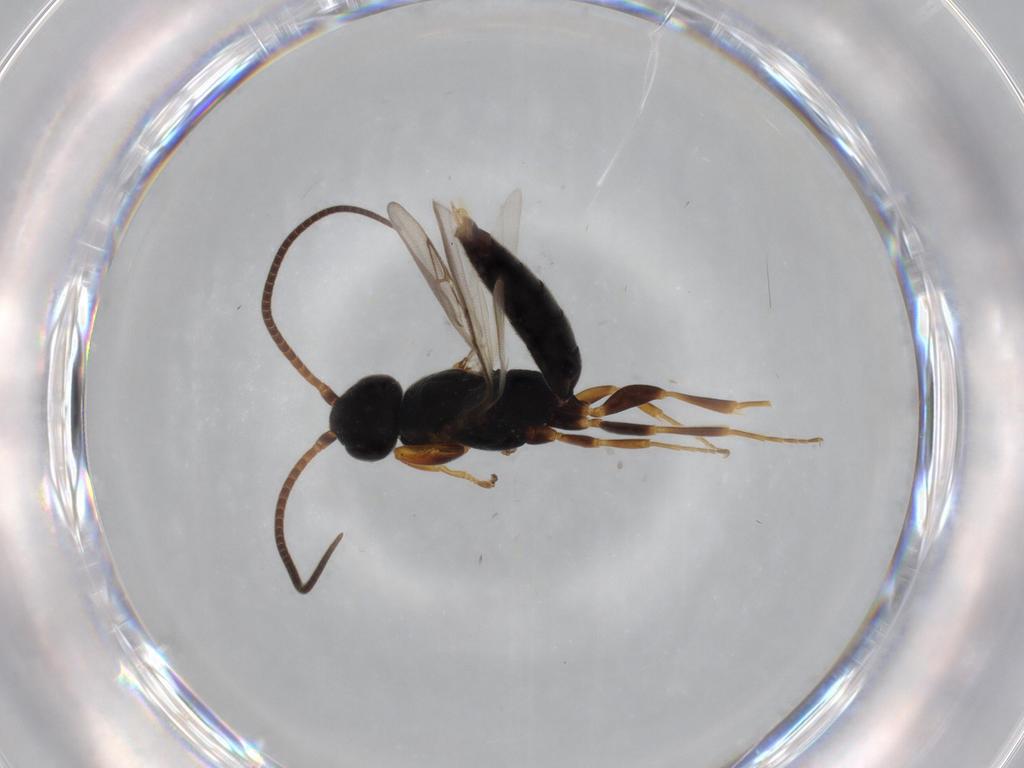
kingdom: Animalia
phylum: Arthropoda
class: Insecta
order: Hymenoptera
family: Sclerogibbidae
